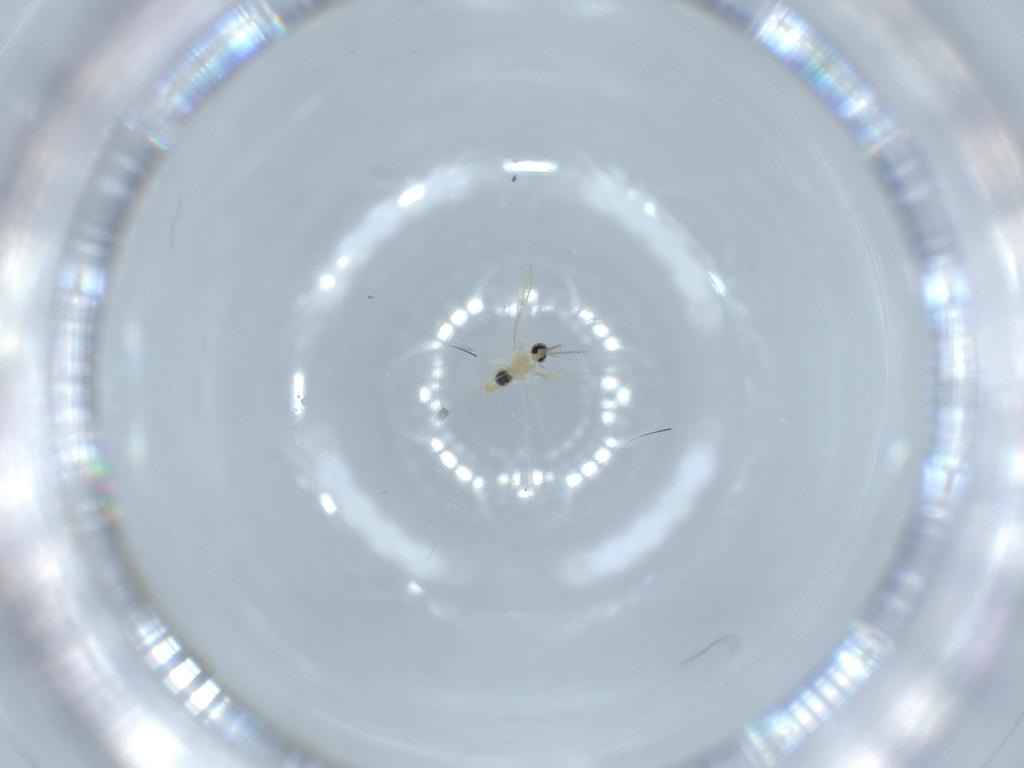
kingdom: Animalia
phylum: Arthropoda
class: Insecta
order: Diptera
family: Cecidomyiidae
